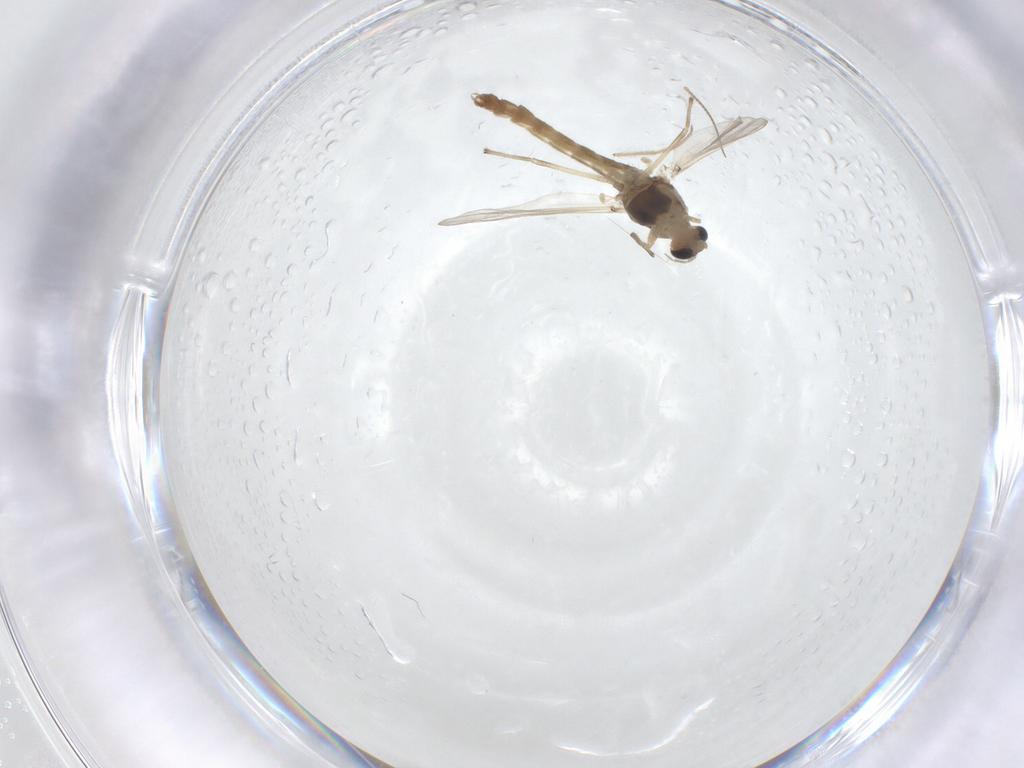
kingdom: Animalia
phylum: Arthropoda
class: Insecta
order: Diptera
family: Chironomidae
